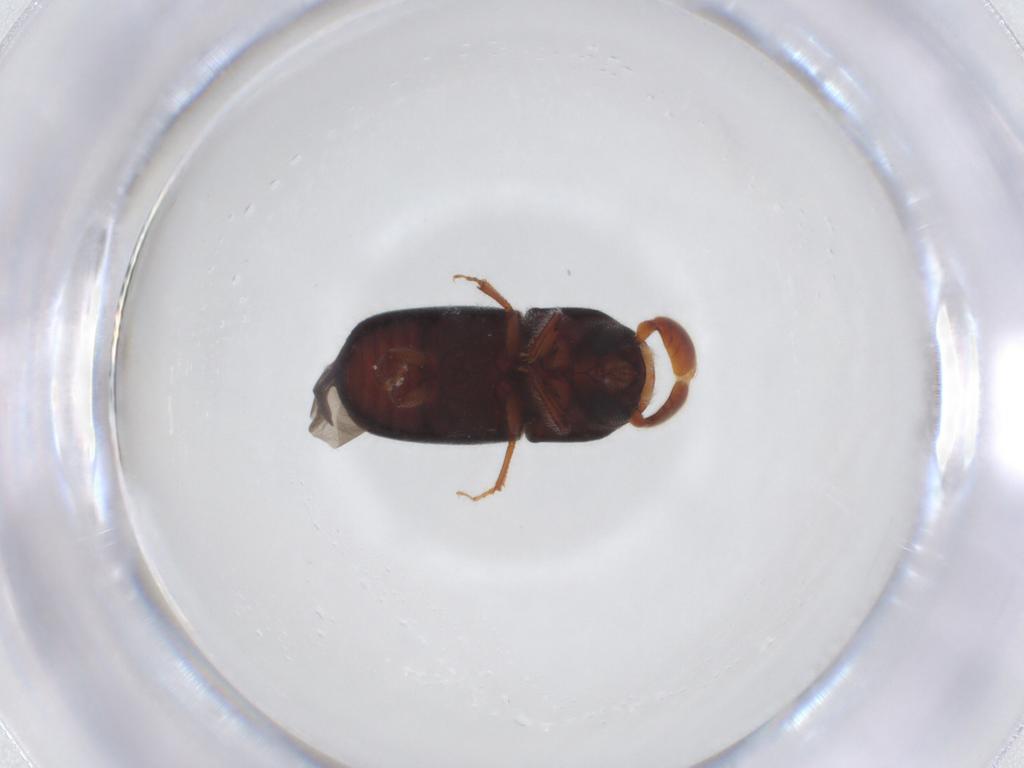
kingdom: Animalia
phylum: Arthropoda
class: Insecta
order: Coleoptera
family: Curculionidae
